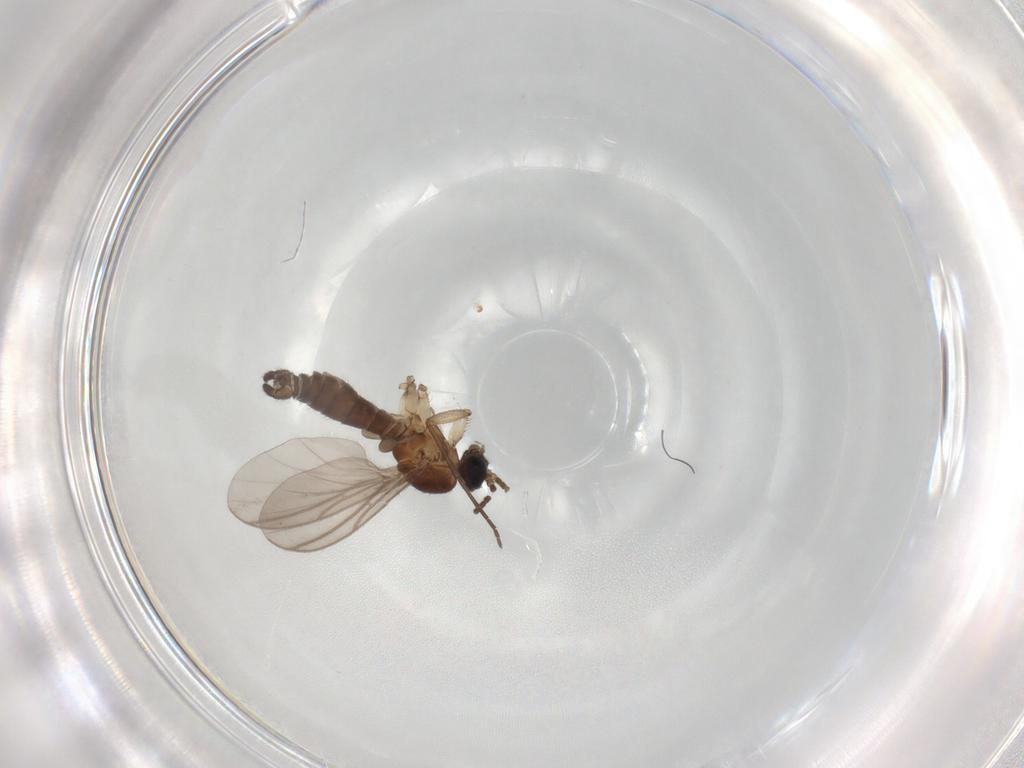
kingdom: Animalia
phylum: Arthropoda
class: Insecta
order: Diptera
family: Sciaridae
